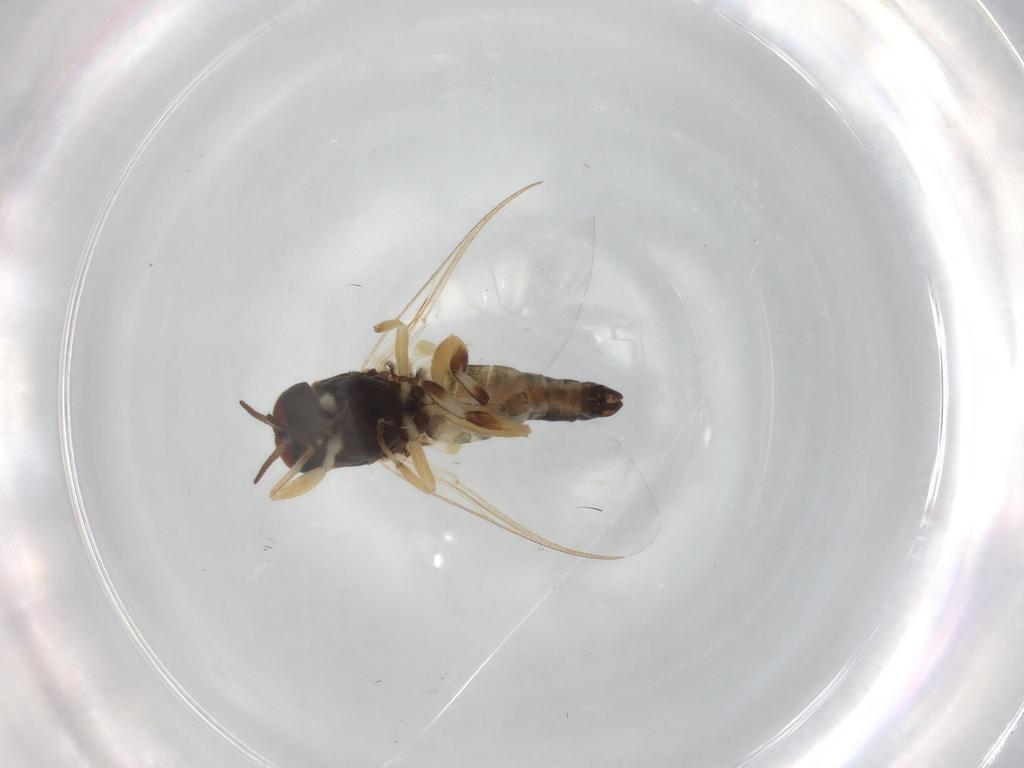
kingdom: Animalia
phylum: Arthropoda
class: Insecta
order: Diptera
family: Simuliidae
